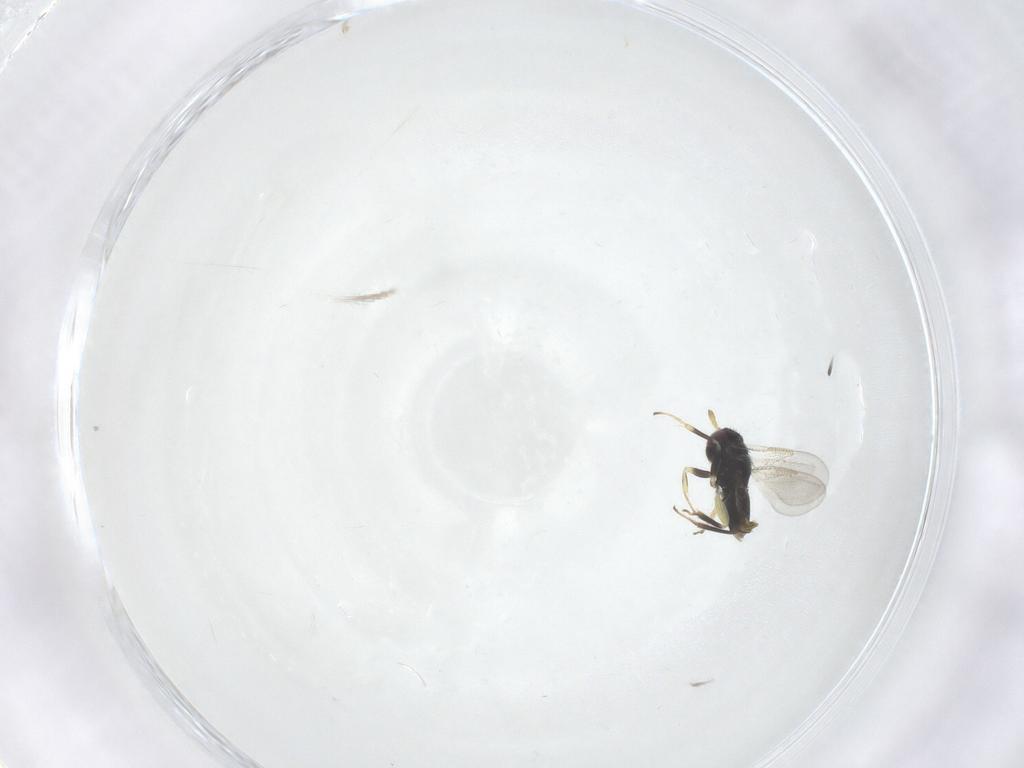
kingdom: Animalia
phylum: Arthropoda
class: Insecta
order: Hymenoptera
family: Aphelinidae
